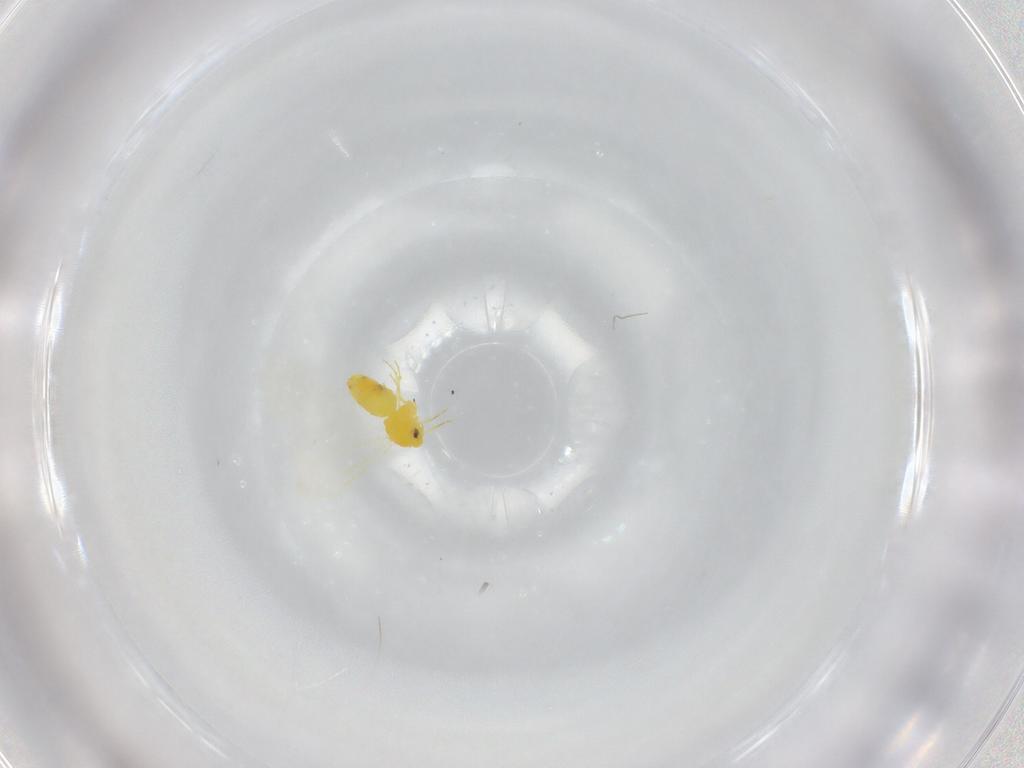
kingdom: Animalia
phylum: Arthropoda
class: Insecta
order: Hemiptera
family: Aleyrodidae
